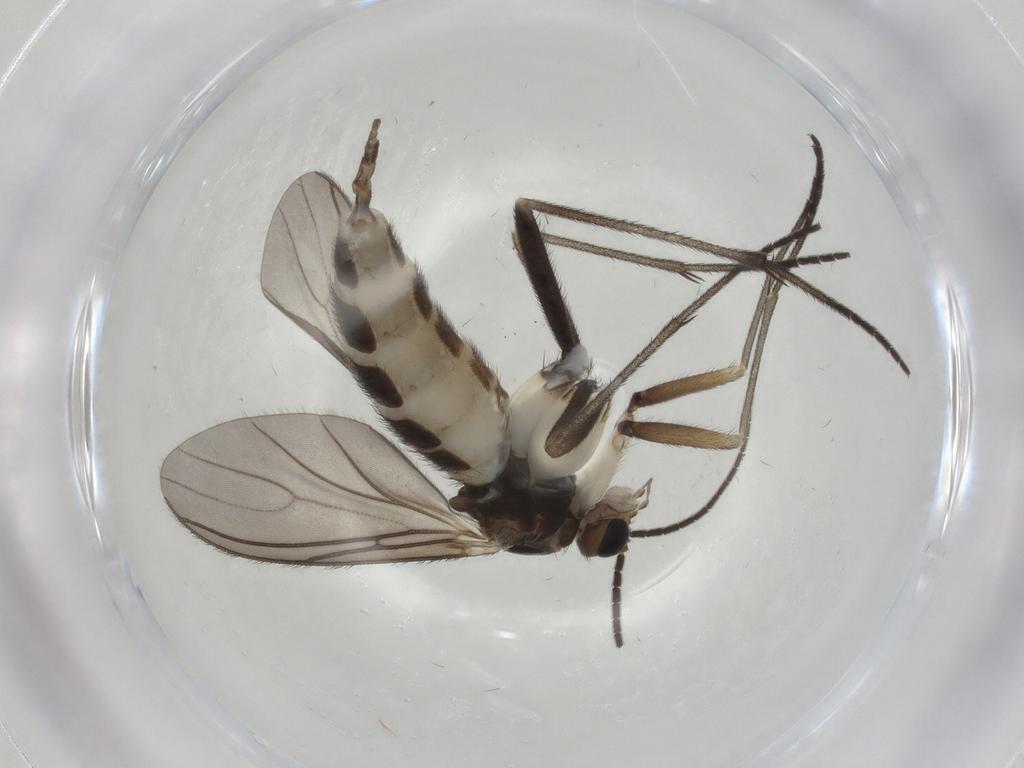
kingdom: Animalia
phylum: Arthropoda
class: Insecta
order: Diptera
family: Sciaridae
